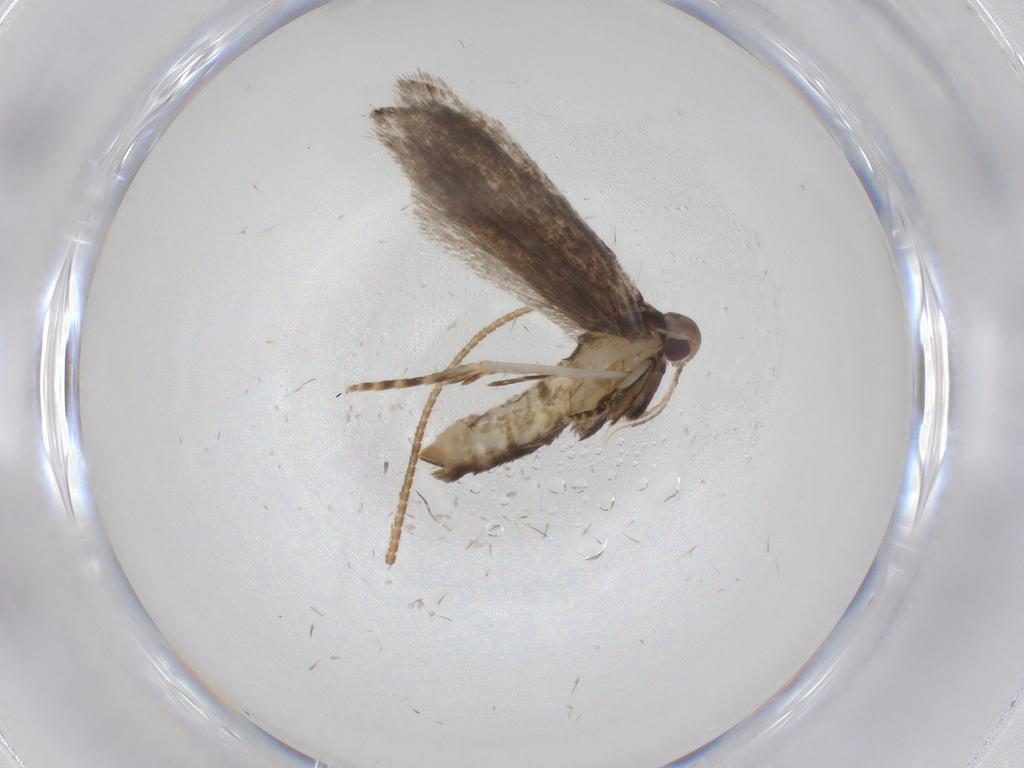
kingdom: Animalia
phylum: Arthropoda
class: Insecta
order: Lepidoptera
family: Gelechiidae
